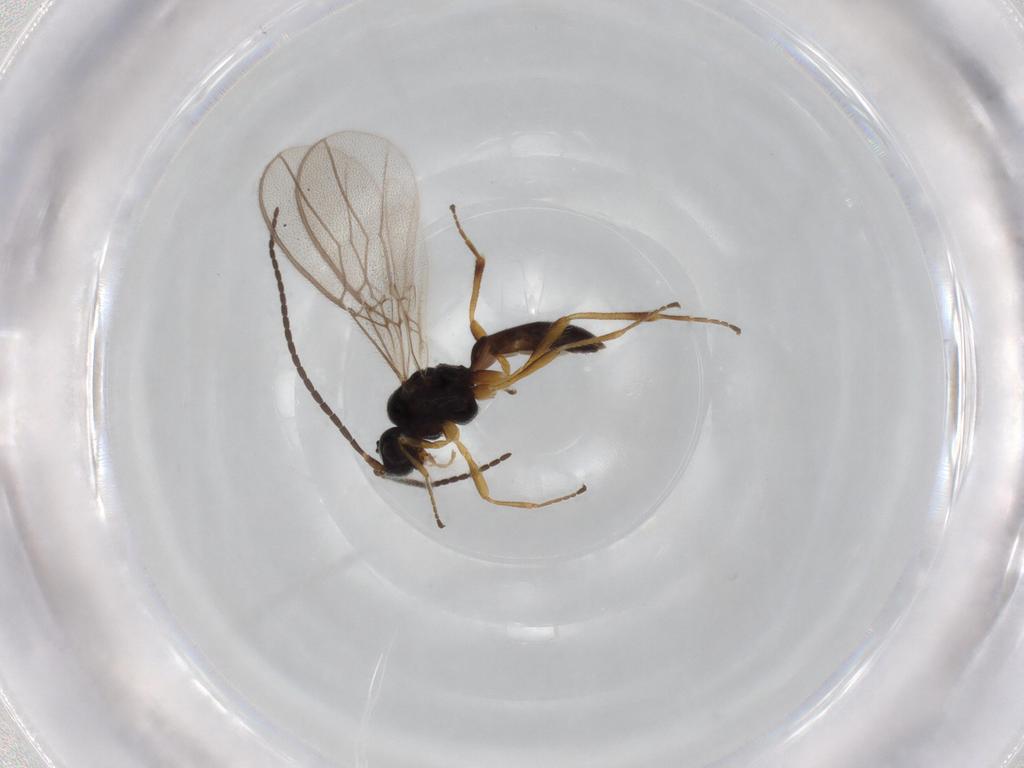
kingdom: Animalia
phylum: Arthropoda
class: Insecta
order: Hymenoptera
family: Braconidae
